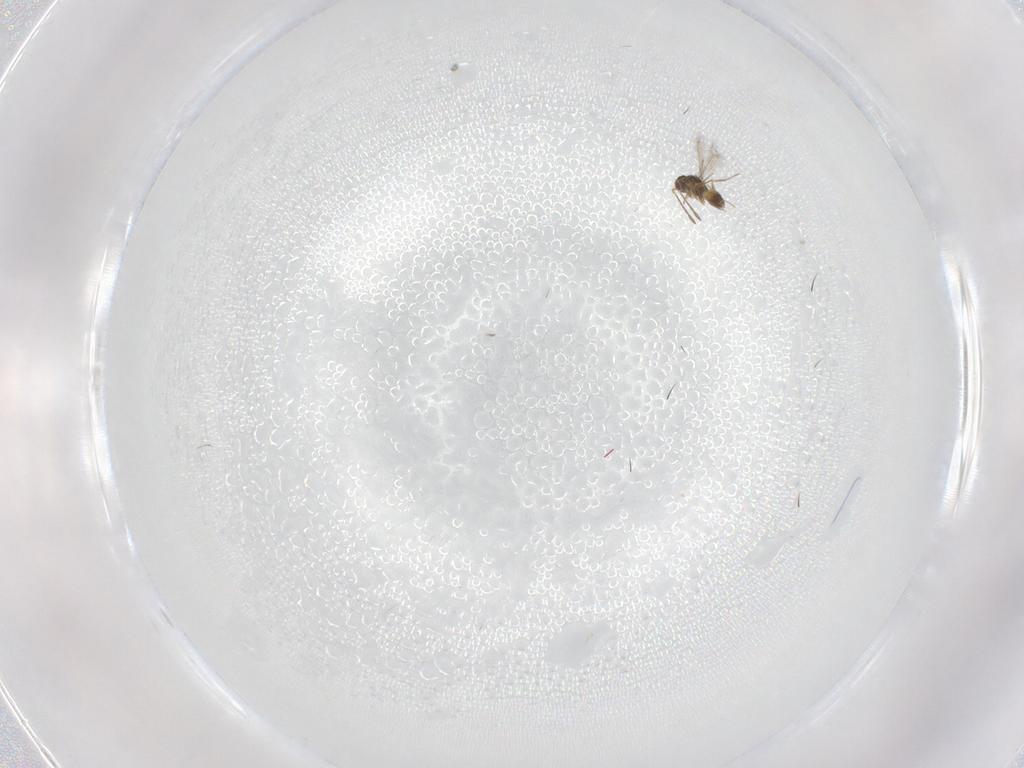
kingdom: Animalia
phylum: Arthropoda
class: Insecta
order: Hymenoptera
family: Mymaridae
